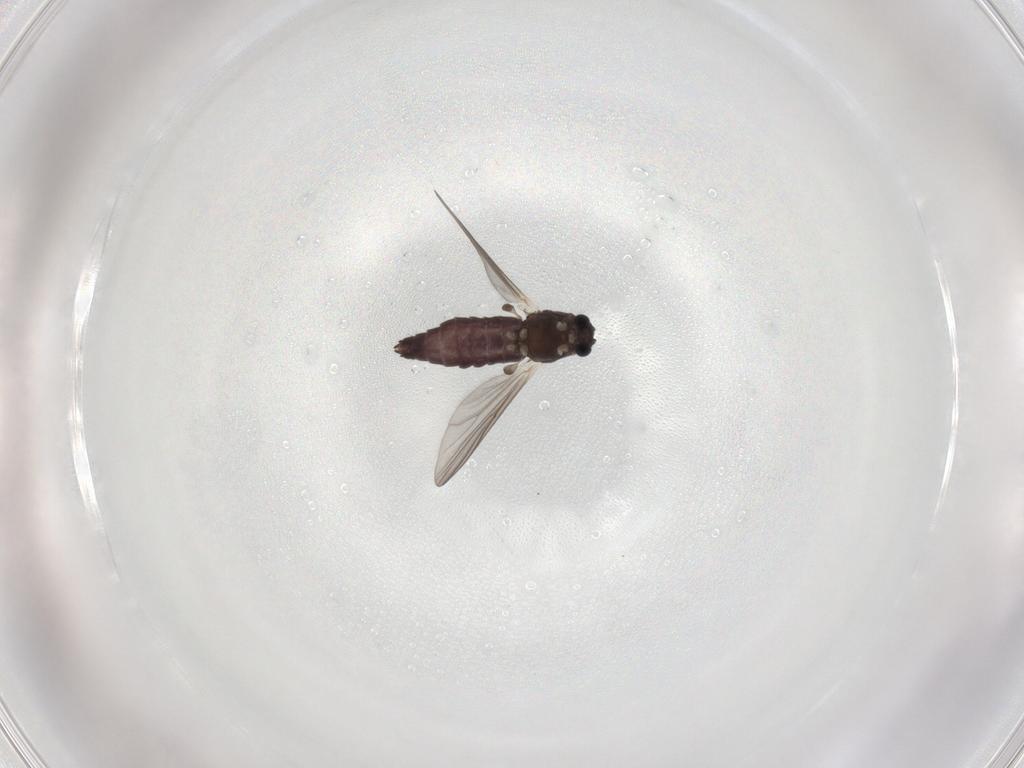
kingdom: Animalia
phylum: Arthropoda
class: Insecta
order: Diptera
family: Chironomidae
